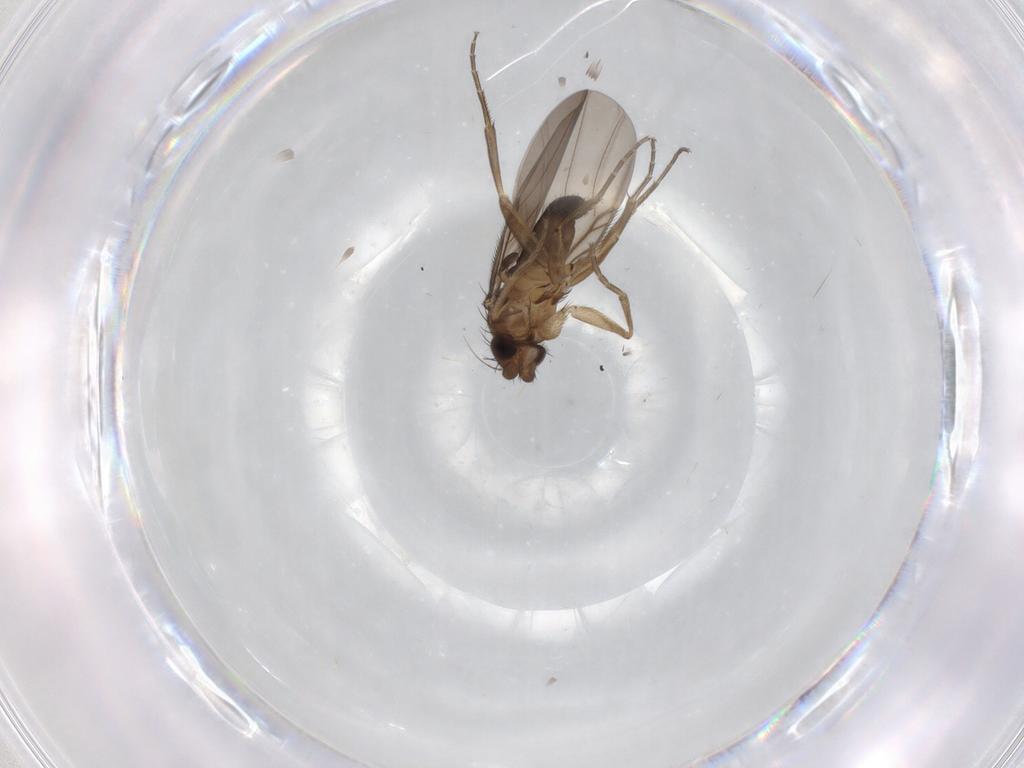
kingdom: Animalia
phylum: Arthropoda
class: Insecta
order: Diptera
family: Phoridae
